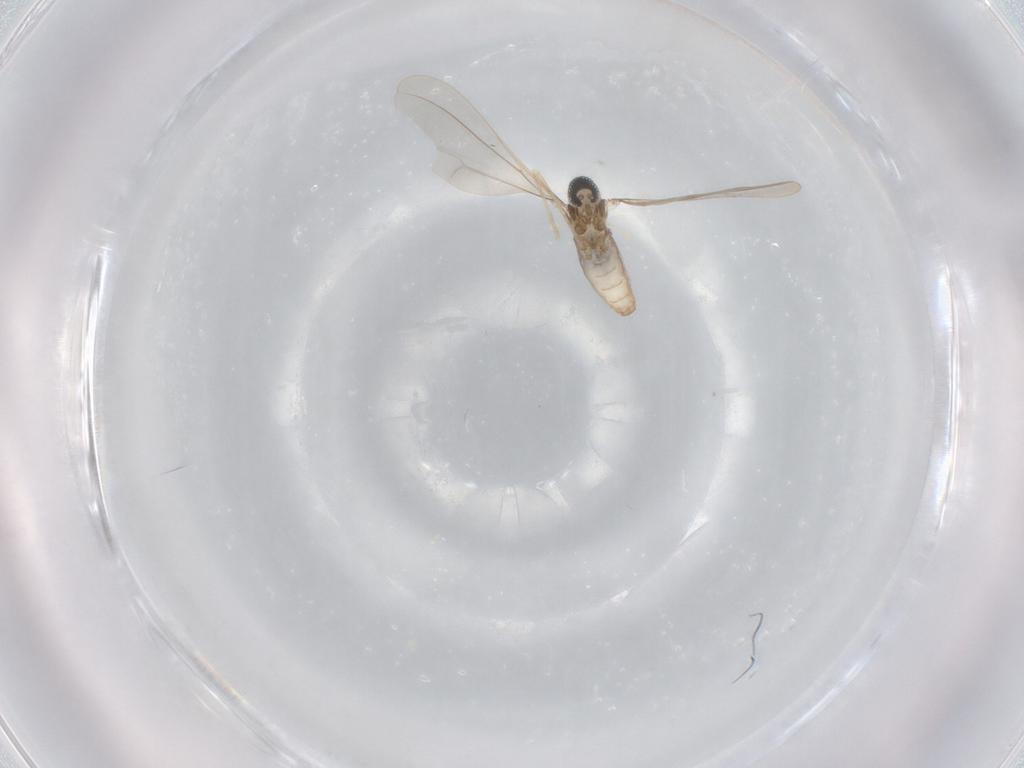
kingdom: Animalia
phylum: Arthropoda
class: Insecta
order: Diptera
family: Cecidomyiidae
